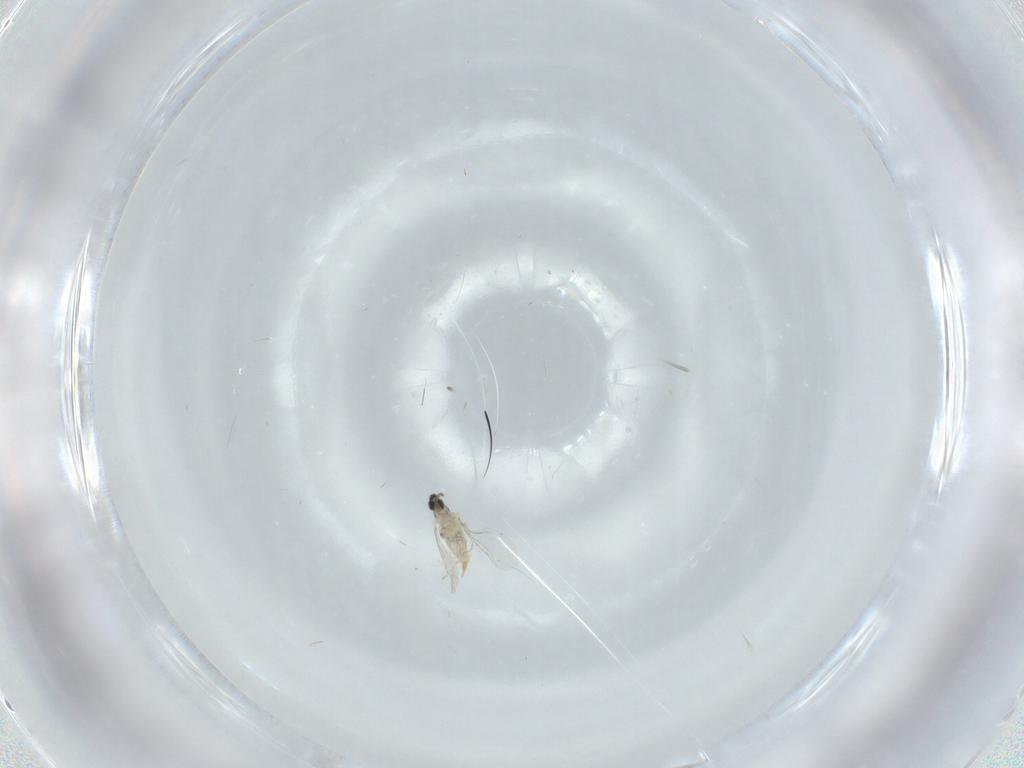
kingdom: Animalia
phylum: Arthropoda
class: Insecta
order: Diptera
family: Cecidomyiidae
